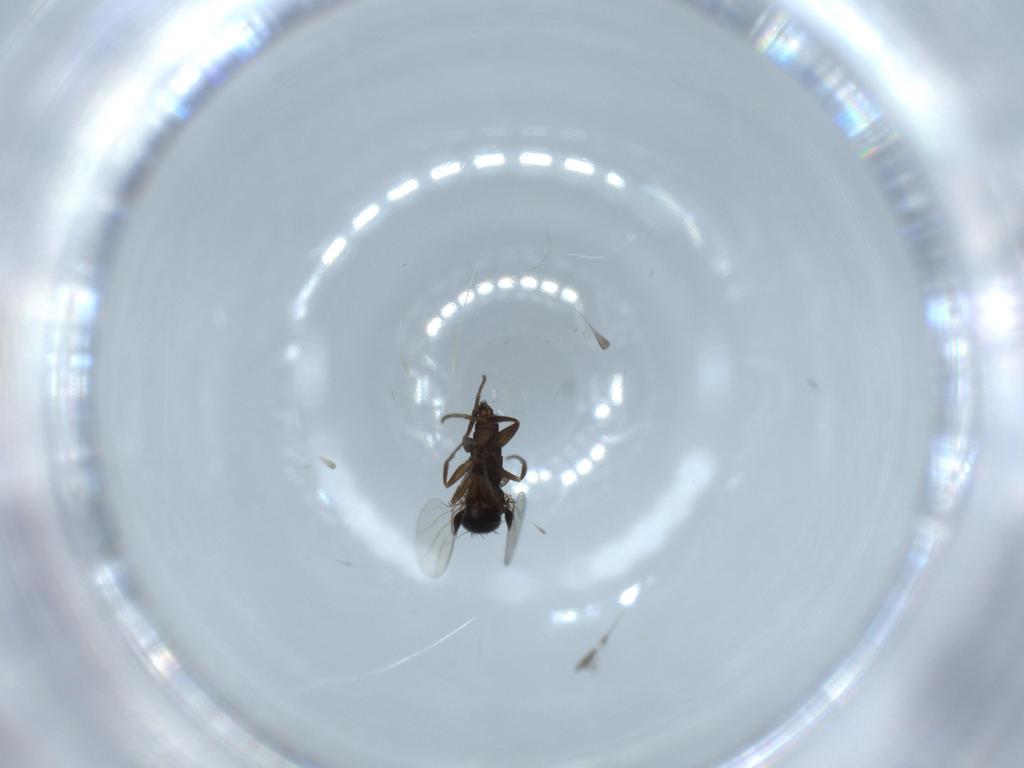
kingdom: Animalia
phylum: Arthropoda
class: Insecta
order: Diptera
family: Phoridae
